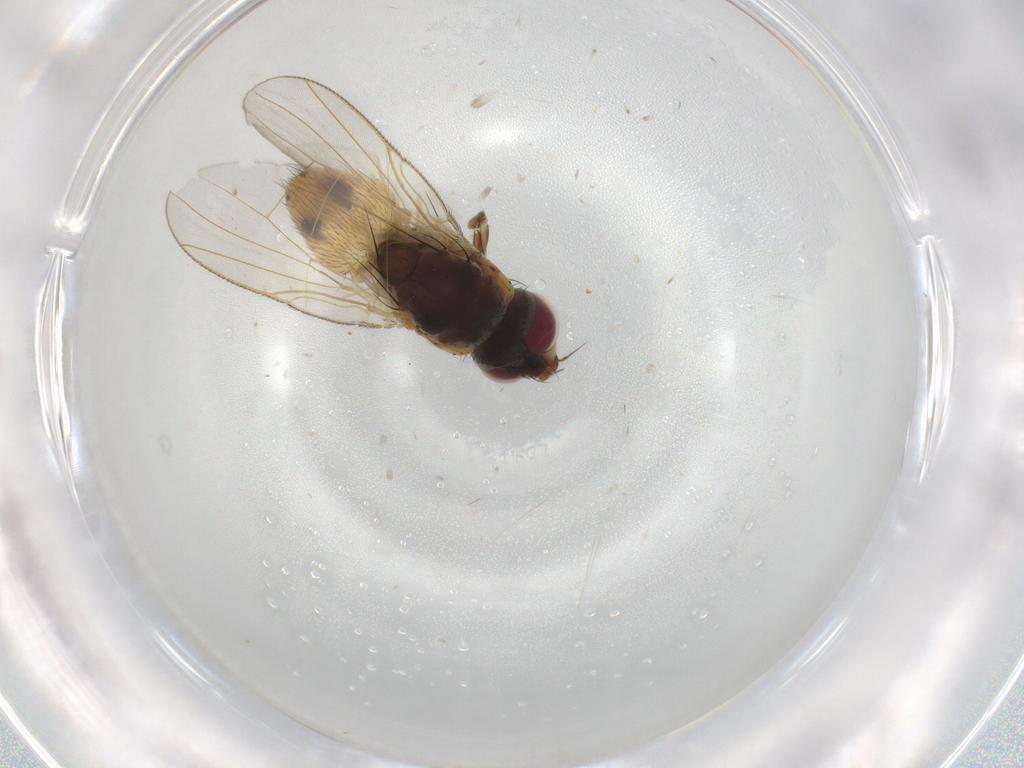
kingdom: Animalia
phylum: Arthropoda
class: Insecta
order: Diptera
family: Muscidae
